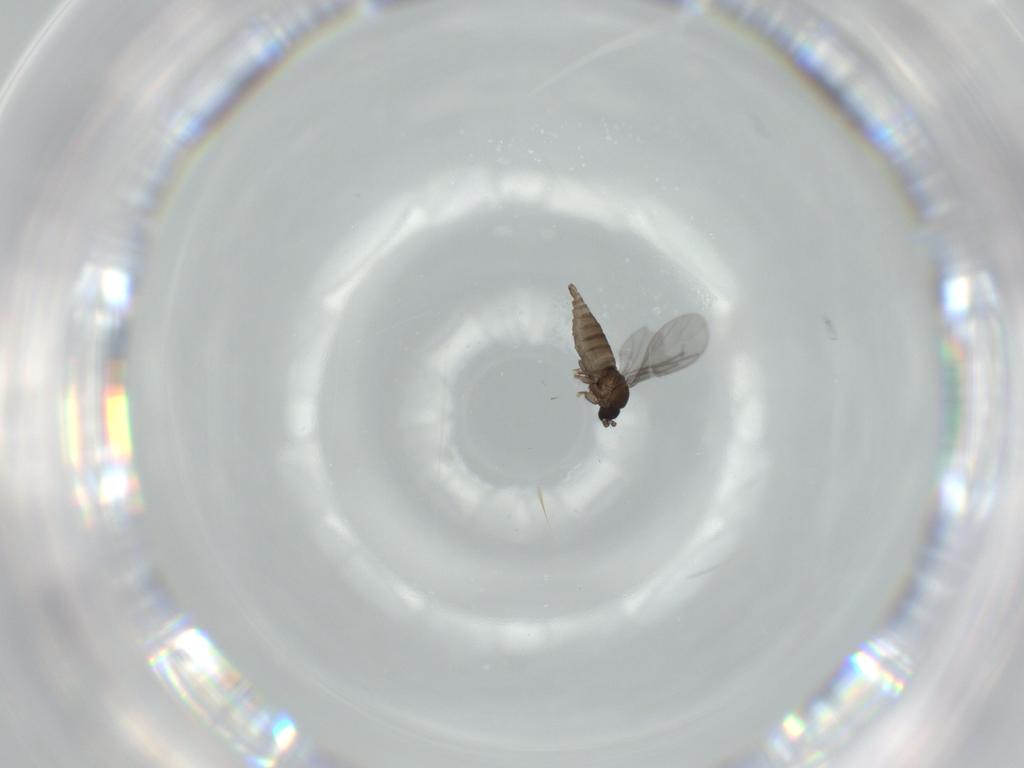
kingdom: Animalia
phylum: Arthropoda
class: Insecta
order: Diptera
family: Sciaridae
